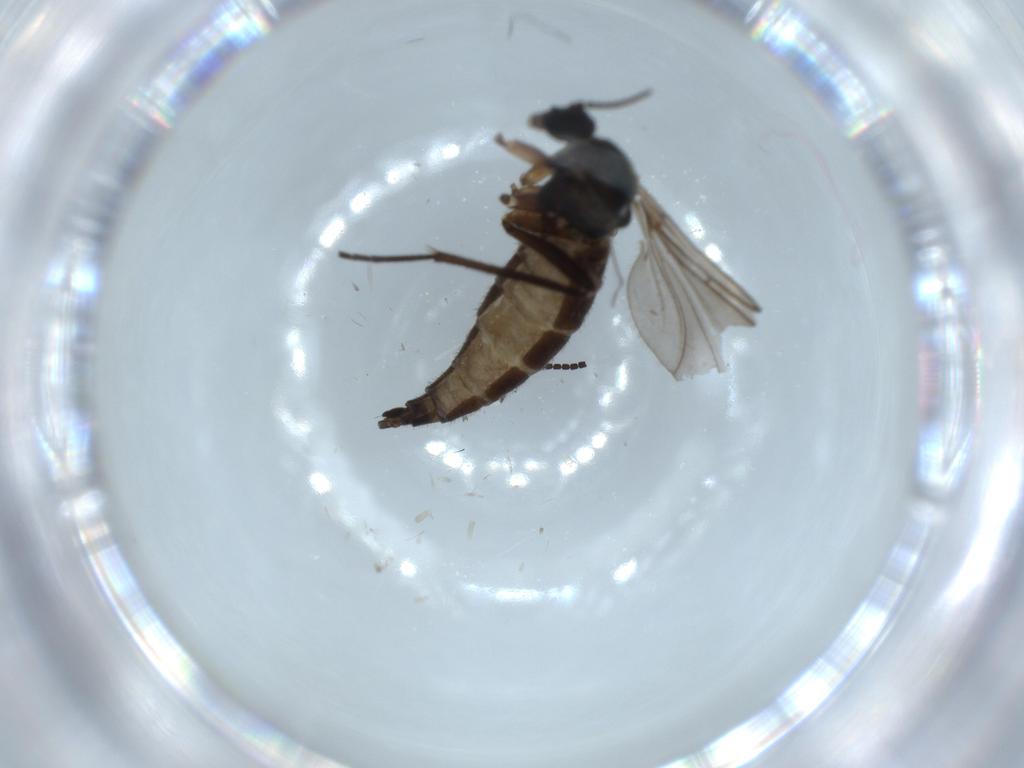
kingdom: Animalia
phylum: Arthropoda
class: Insecta
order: Diptera
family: Sciaridae
